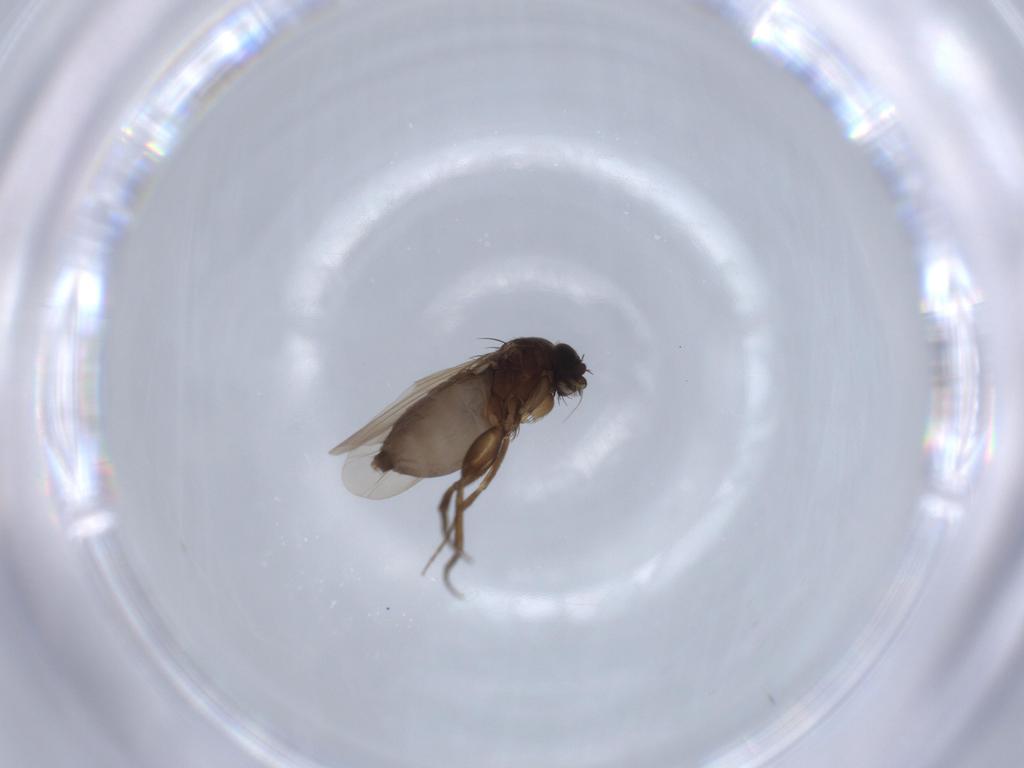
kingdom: Animalia
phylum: Arthropoda
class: Insecta
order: Diptera
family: Phoridae
